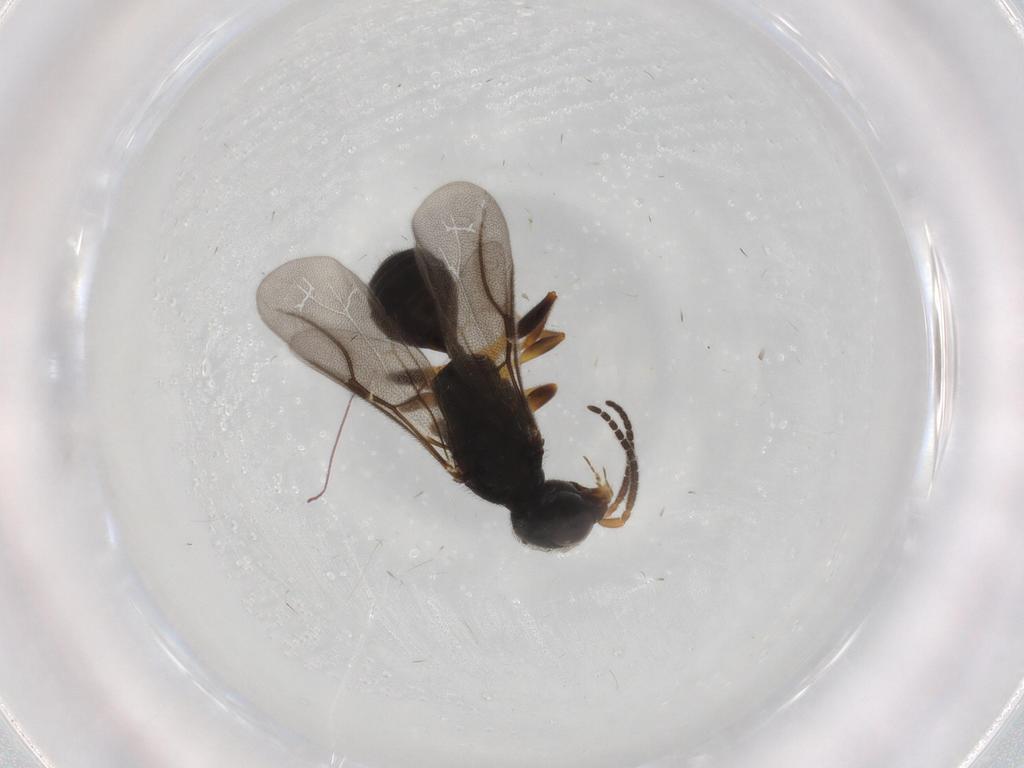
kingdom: Animalia
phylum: Arthropoda
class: Insecta
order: Hymenoptera
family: Bethylidae
